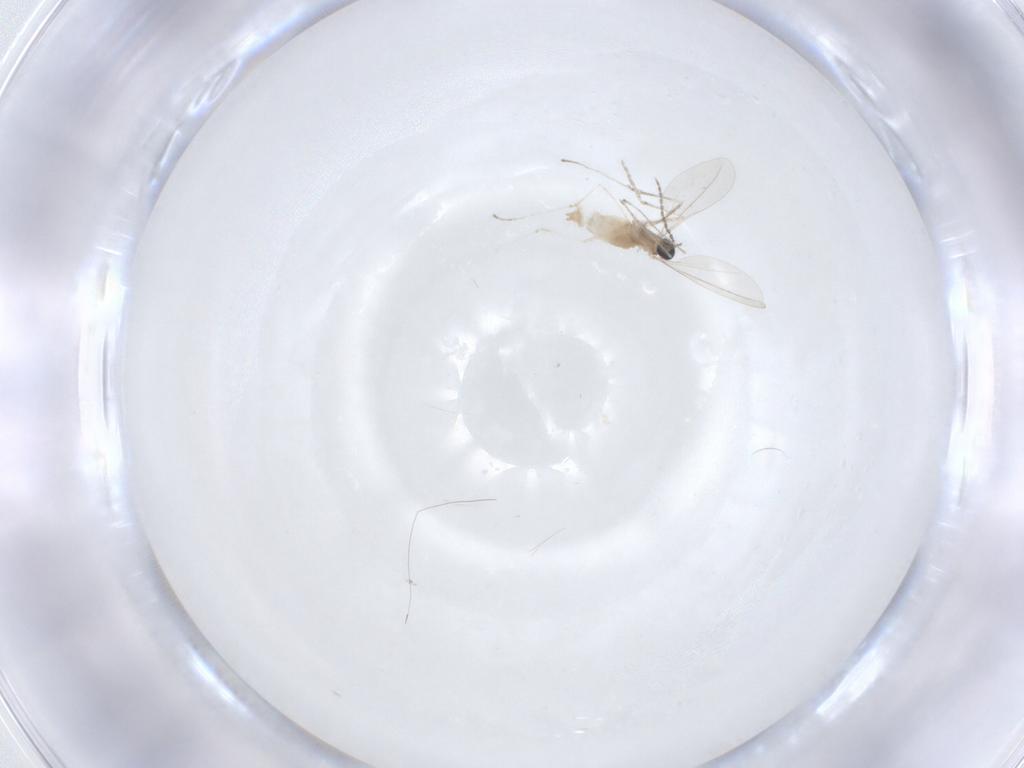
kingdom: Animalia
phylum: Arthropoda
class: Insecta
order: Diptera
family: Cecidomyiidae
